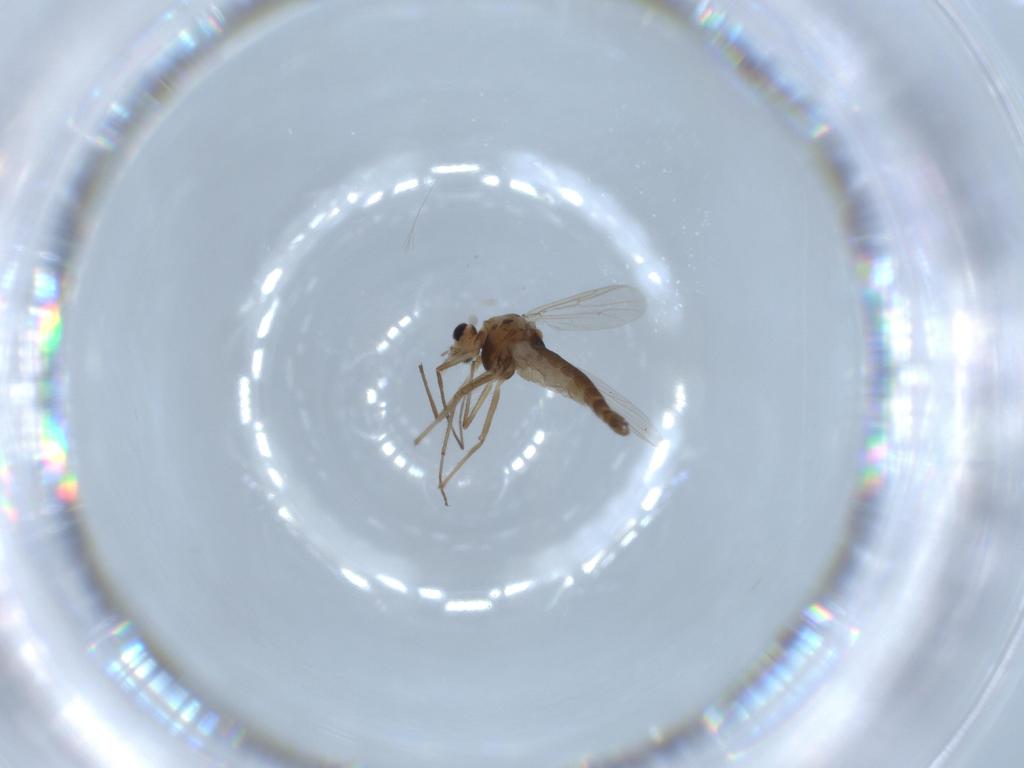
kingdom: Animalia
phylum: Arthropoda
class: Insecta
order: Diptera
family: Chironomidae
